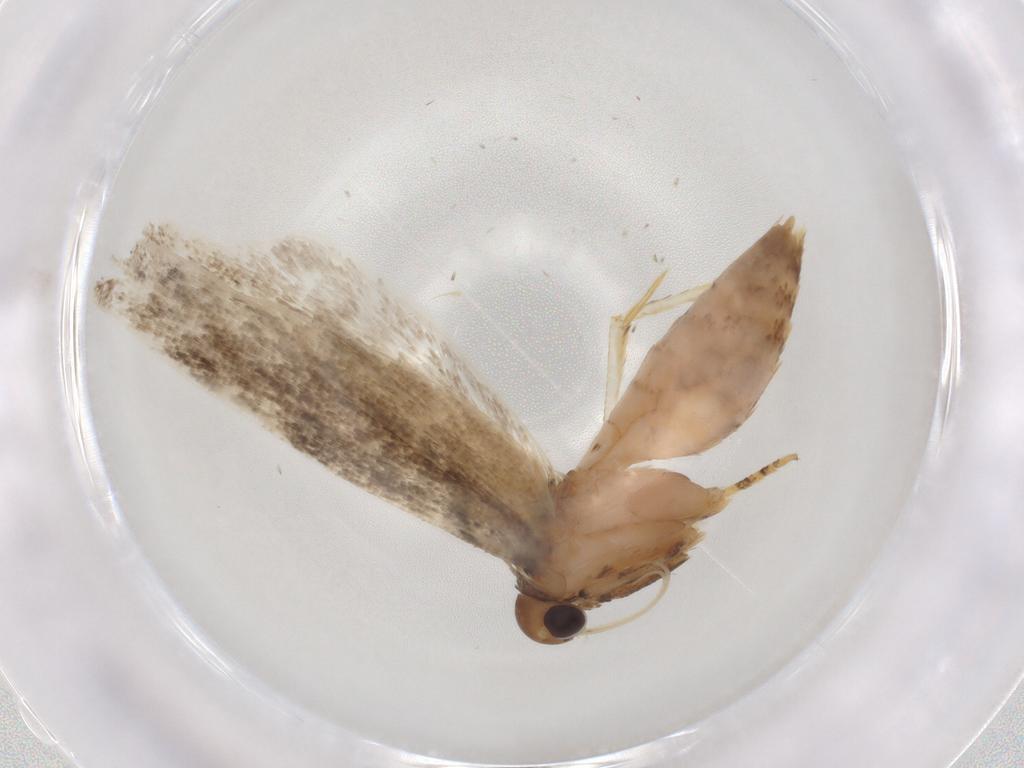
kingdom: Animalia
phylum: Arthropoda
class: Insecta
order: Lepidoptera
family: Gelechiidae
